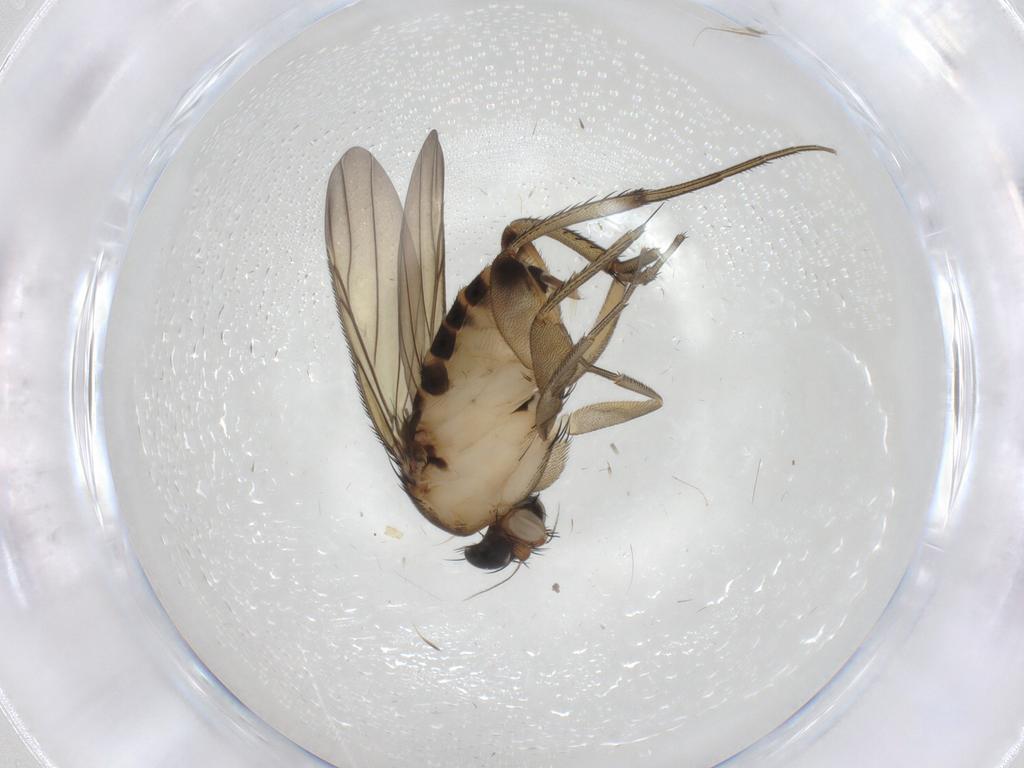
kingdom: Animalia
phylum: Arthropoda
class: Insecta
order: Diptera
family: Phoridae
